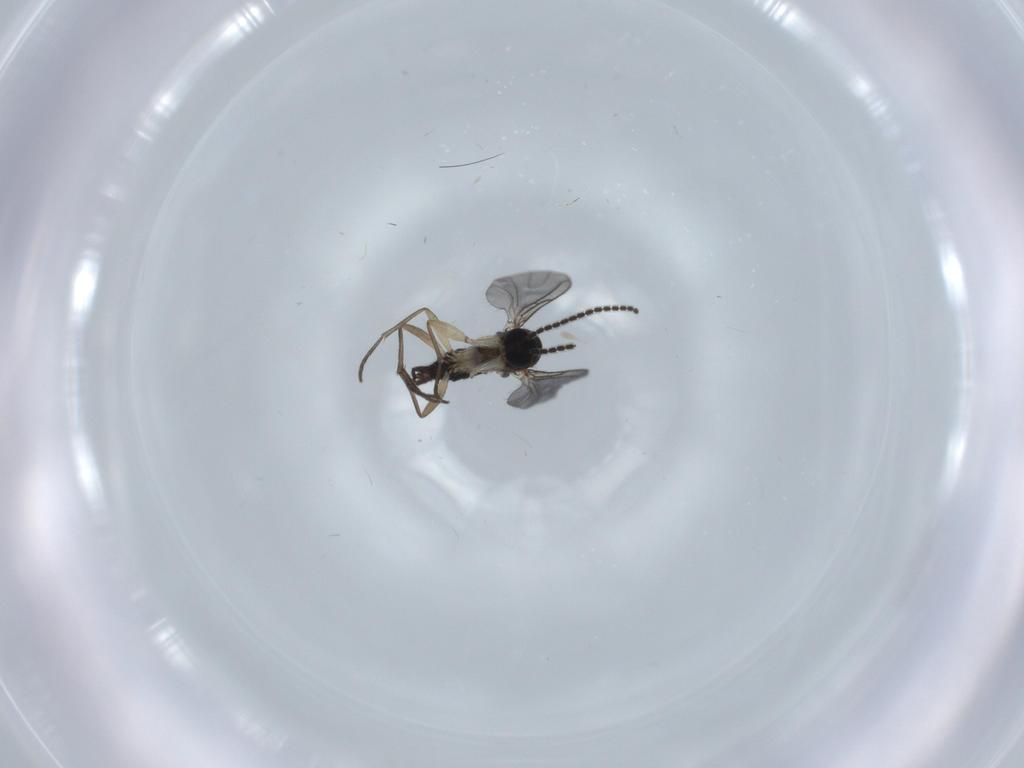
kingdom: Animalia
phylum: Arthropoda
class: Insecta
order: Diptera
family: Sciaridae
